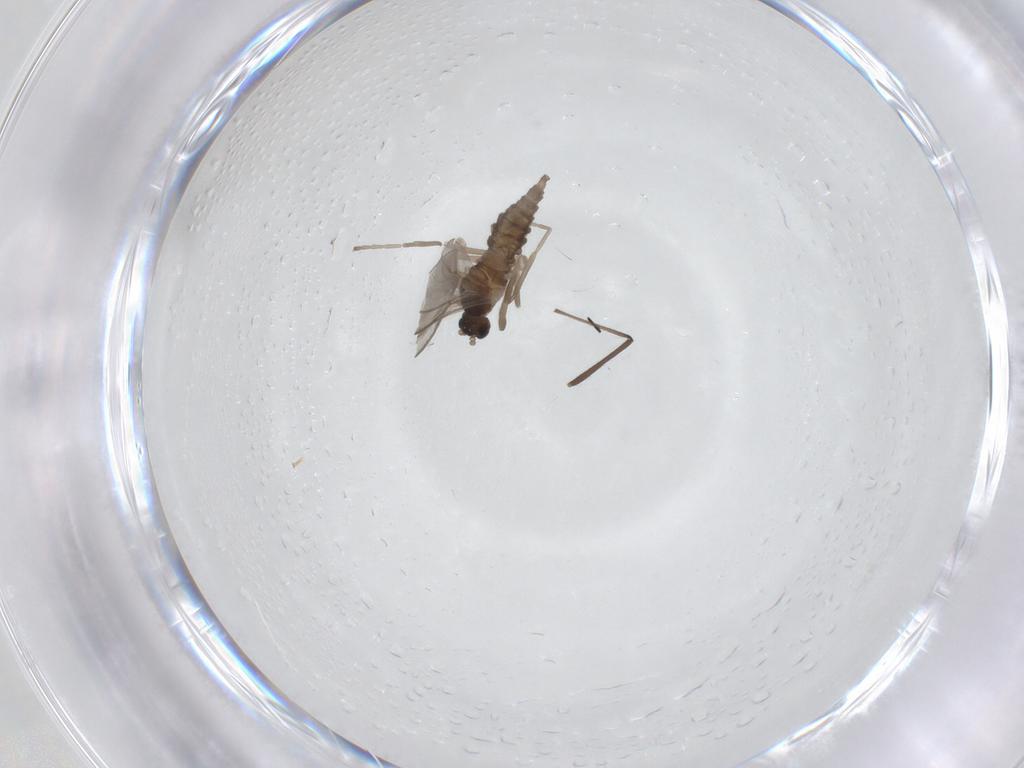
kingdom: Animalia
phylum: Arthropoda
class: Insecta
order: Diptera
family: Cecidomyiidae
